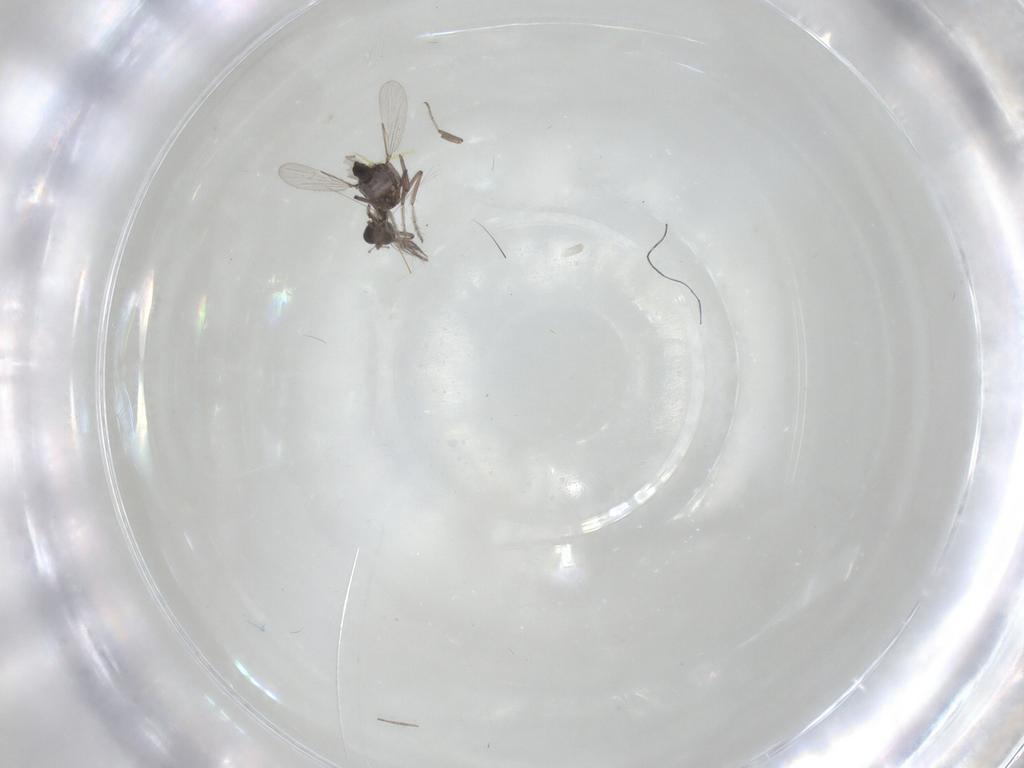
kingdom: Animalia
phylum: Arthropoda
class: Insecta
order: Diptera
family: Ceratopogonidae
